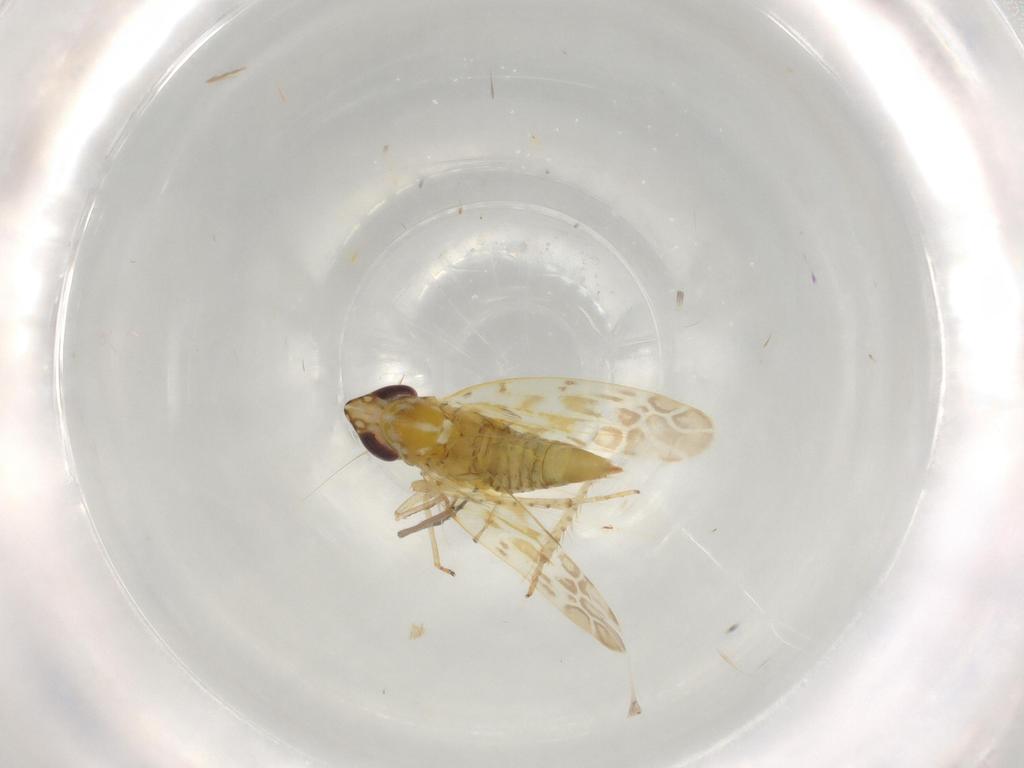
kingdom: Animalia
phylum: Arthropoda
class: Insecta
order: Hemiptera
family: Cicadellidae
